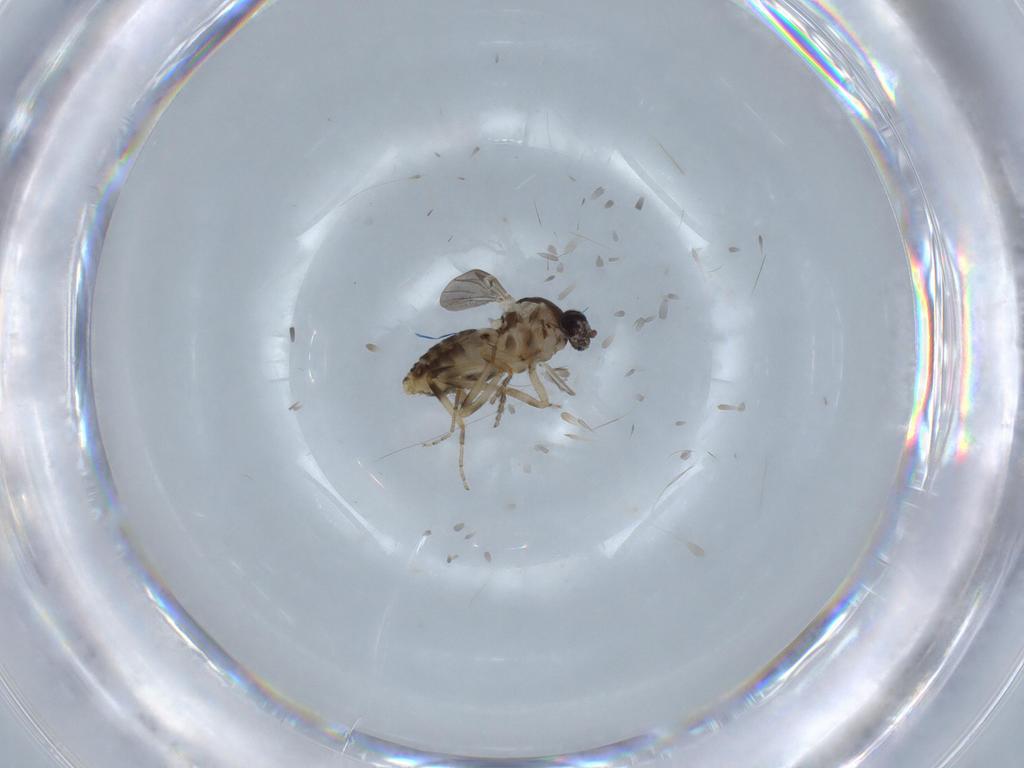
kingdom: Animalia
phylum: Arthropoda
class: Insecta
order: Diptera
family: Ceratopogonidae
